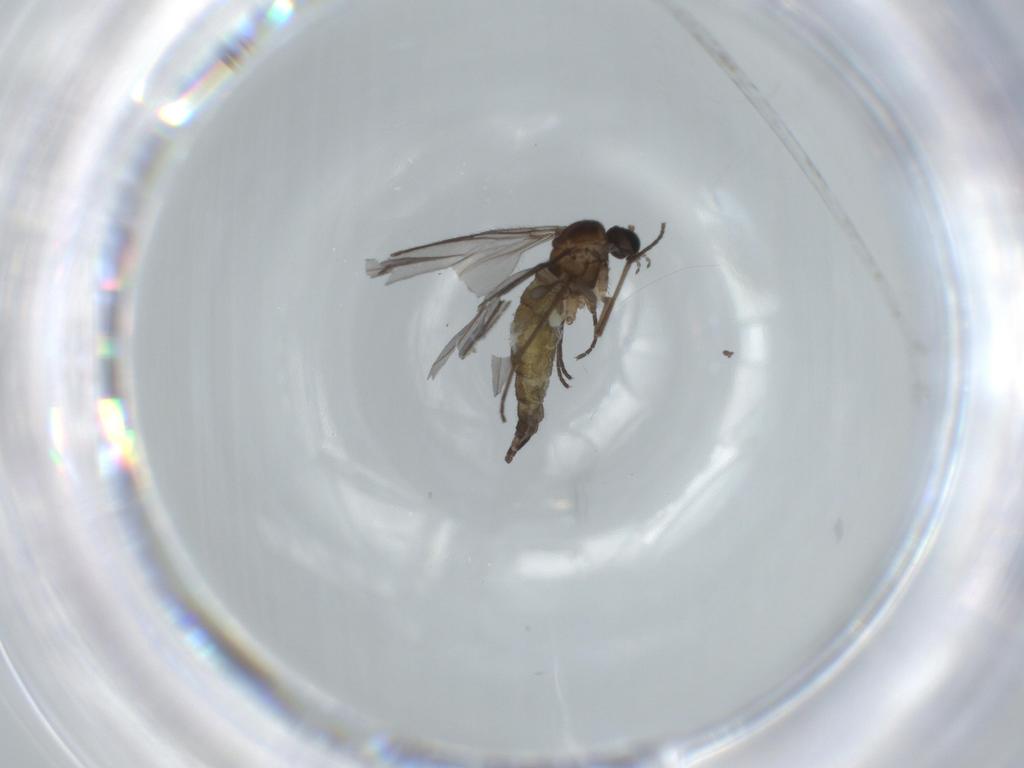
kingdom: Animalia
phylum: Arthropoda
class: Insecta
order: Diptera
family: Sciaridae
